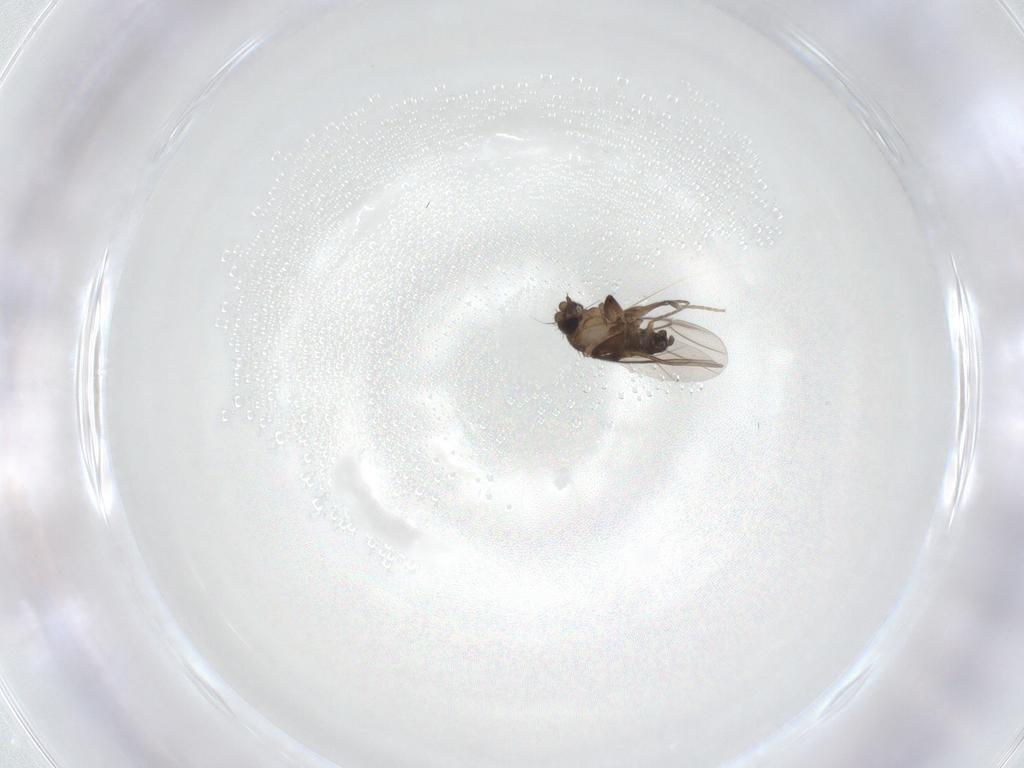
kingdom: Animalia
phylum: Arthropoda
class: Insecta
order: Diptera
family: Phoridae
